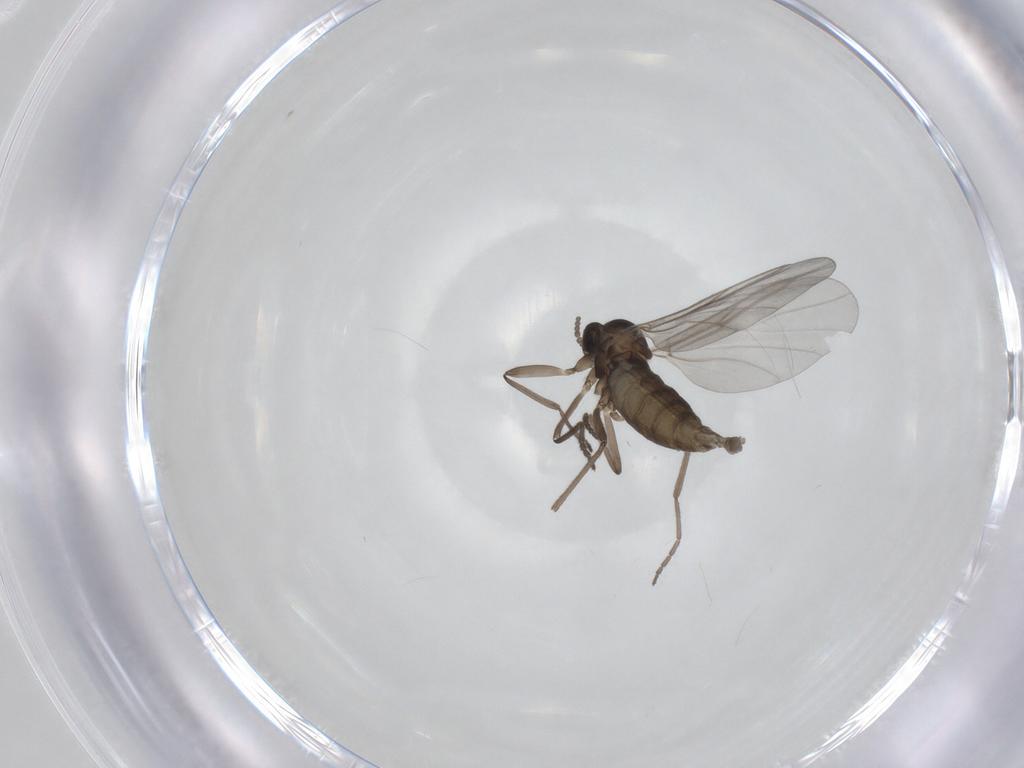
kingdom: Animalia
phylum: Arthropoda
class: Insecta
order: Diptera
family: Cecidomyiidae
